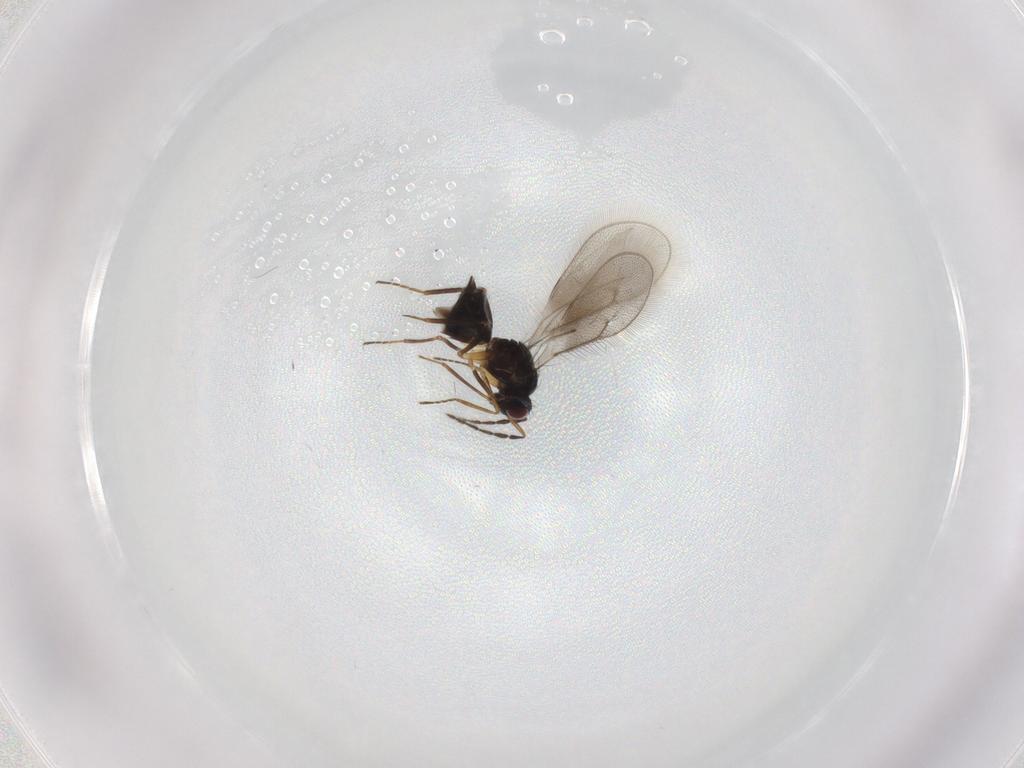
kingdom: Animalia
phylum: Arthropoda
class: Insecta
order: Hymenoptera
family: Eulophidae
